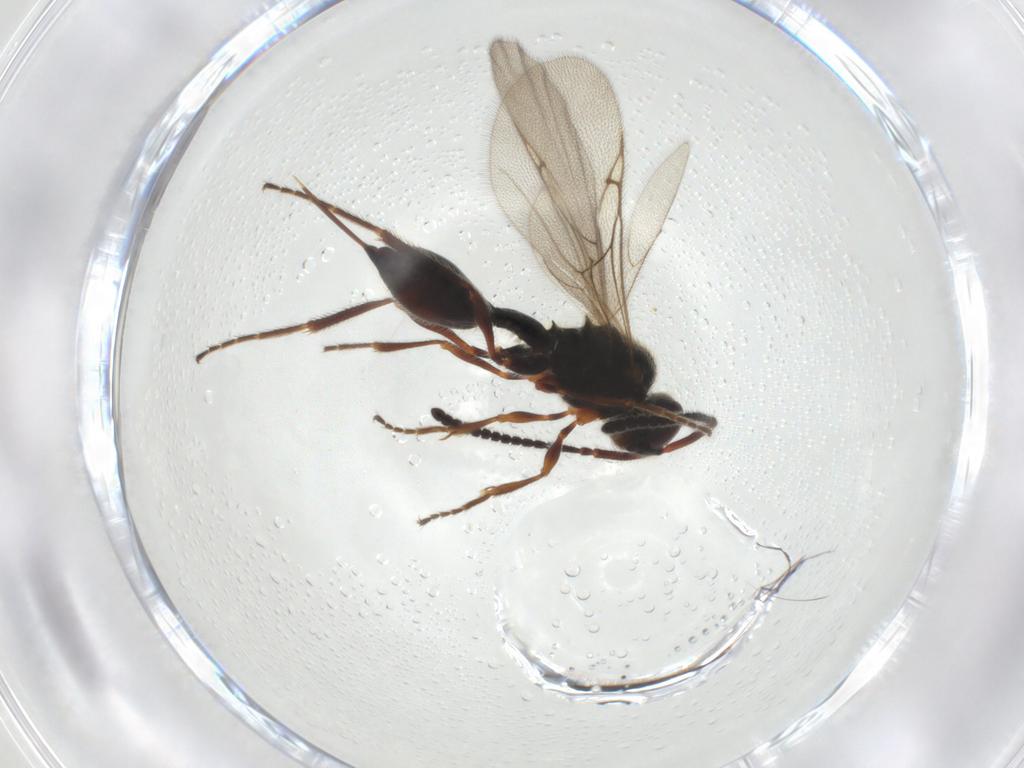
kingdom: Animalia
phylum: Arthropoda
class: Insecta
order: Hymenoptera
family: Diapriidae
